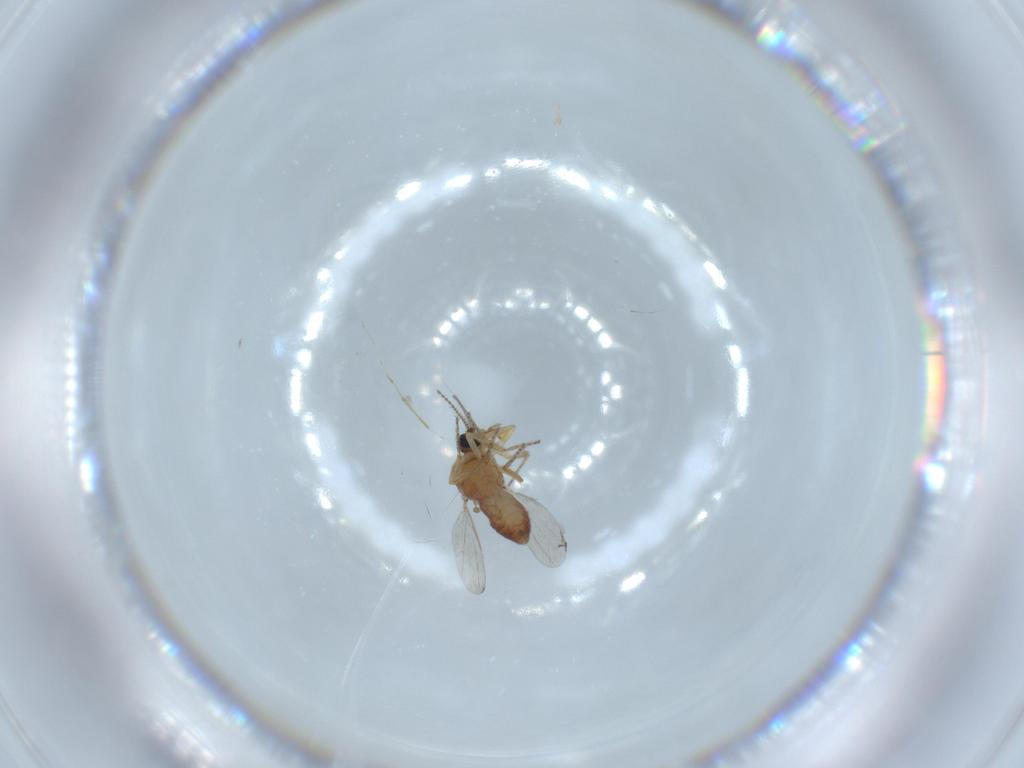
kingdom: Animalia
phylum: Arthropoda
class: Insecta
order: Diptera
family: Ceratopogonidae
